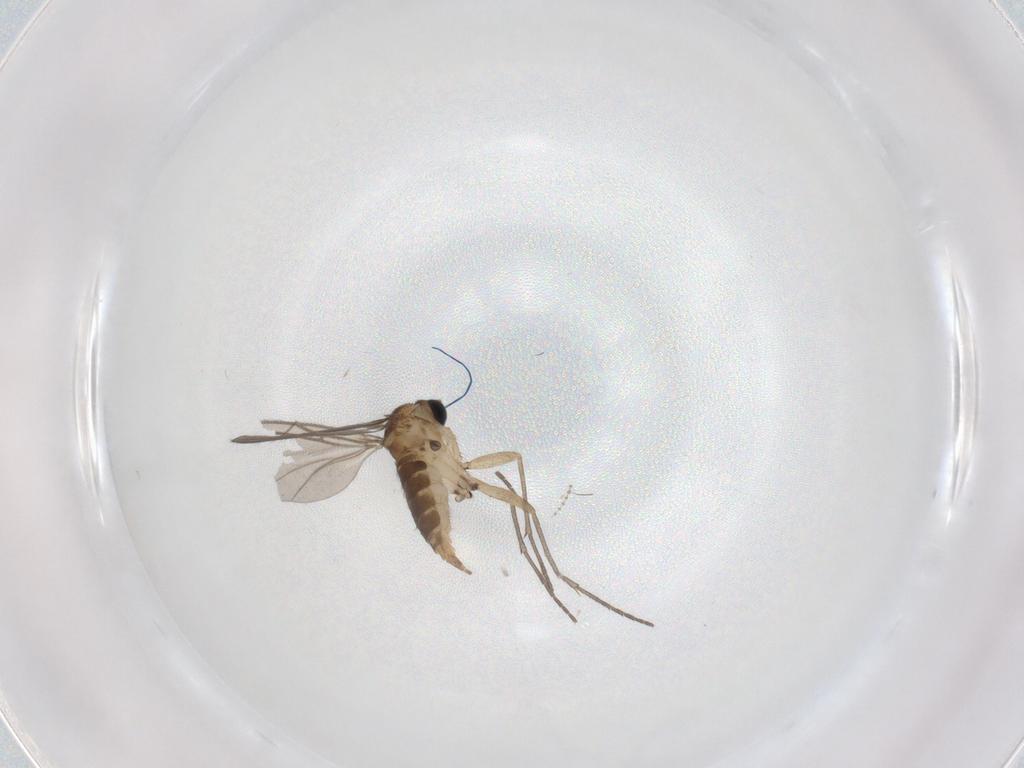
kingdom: Animalia
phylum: Arthropoda
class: Insecta
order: Diptera
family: Sciaridae
